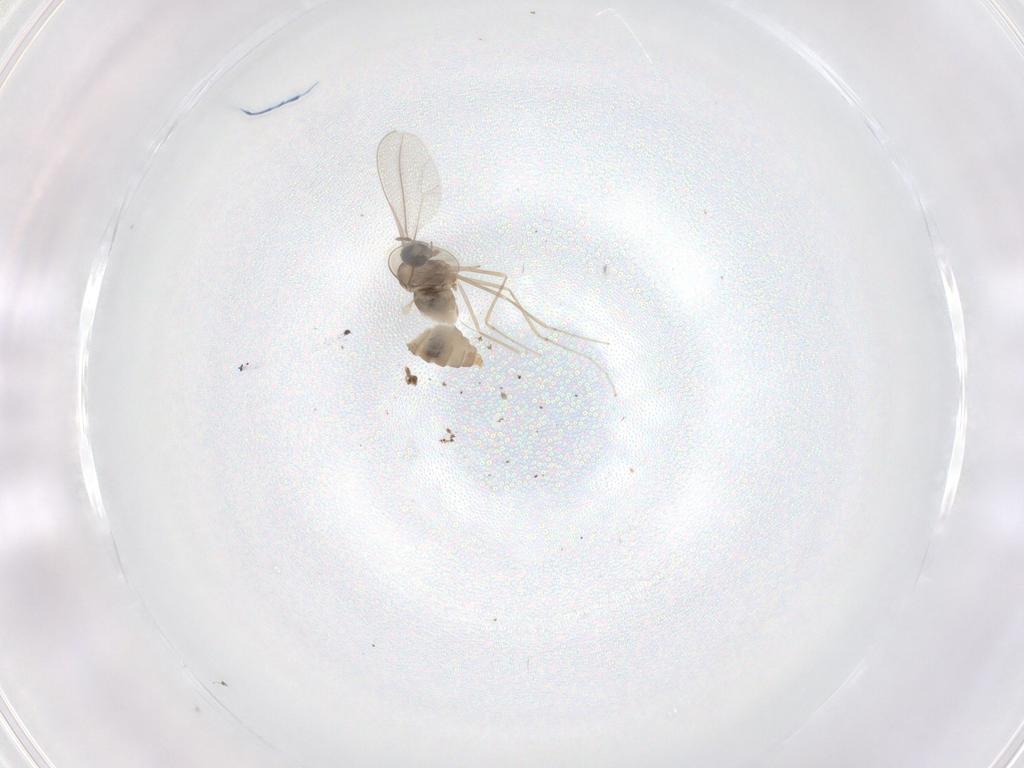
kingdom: Animalia
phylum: Arthropoda
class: Insecta
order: Diptera
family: Cecidomyiidae
